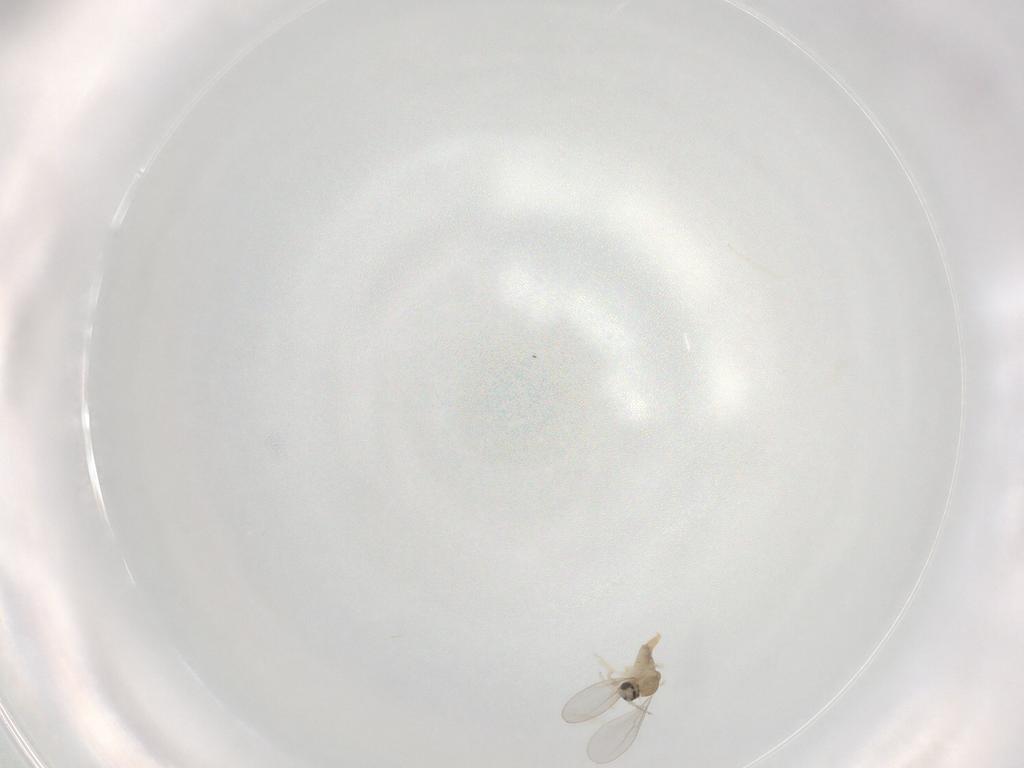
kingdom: Animalia
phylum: Arthropoda
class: Insecta
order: Diptera
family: Cecidomyiidae
